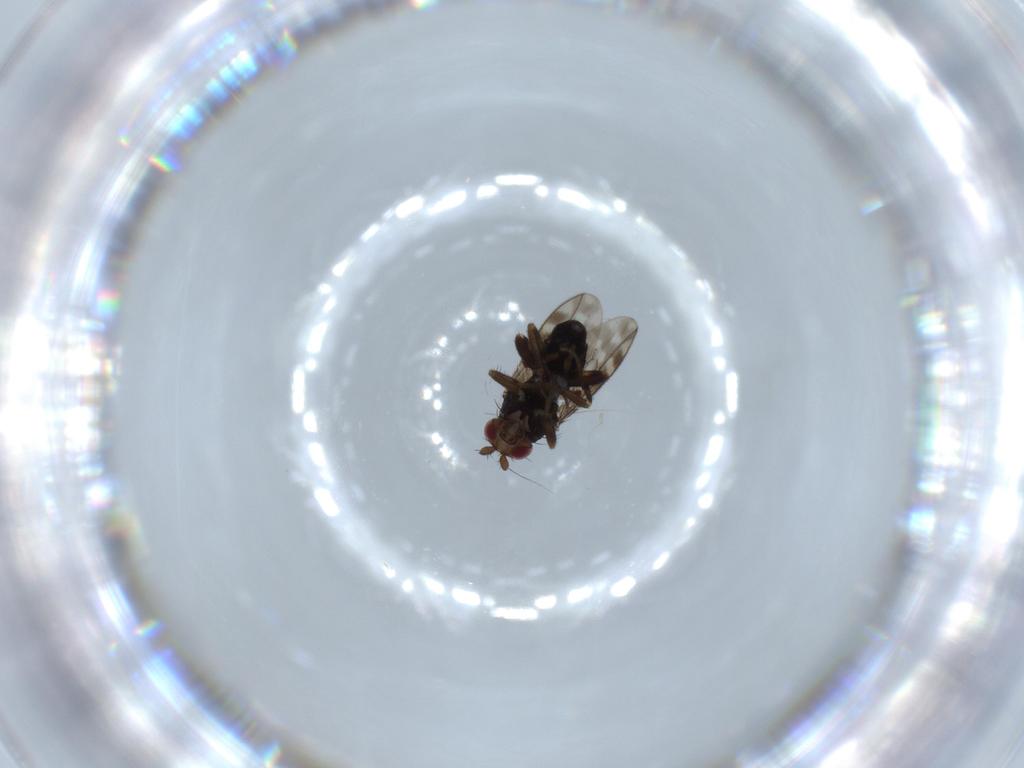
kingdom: Animalia
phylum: Arthropoda
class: Insecta
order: Diptera
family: Sphaeroceridae
